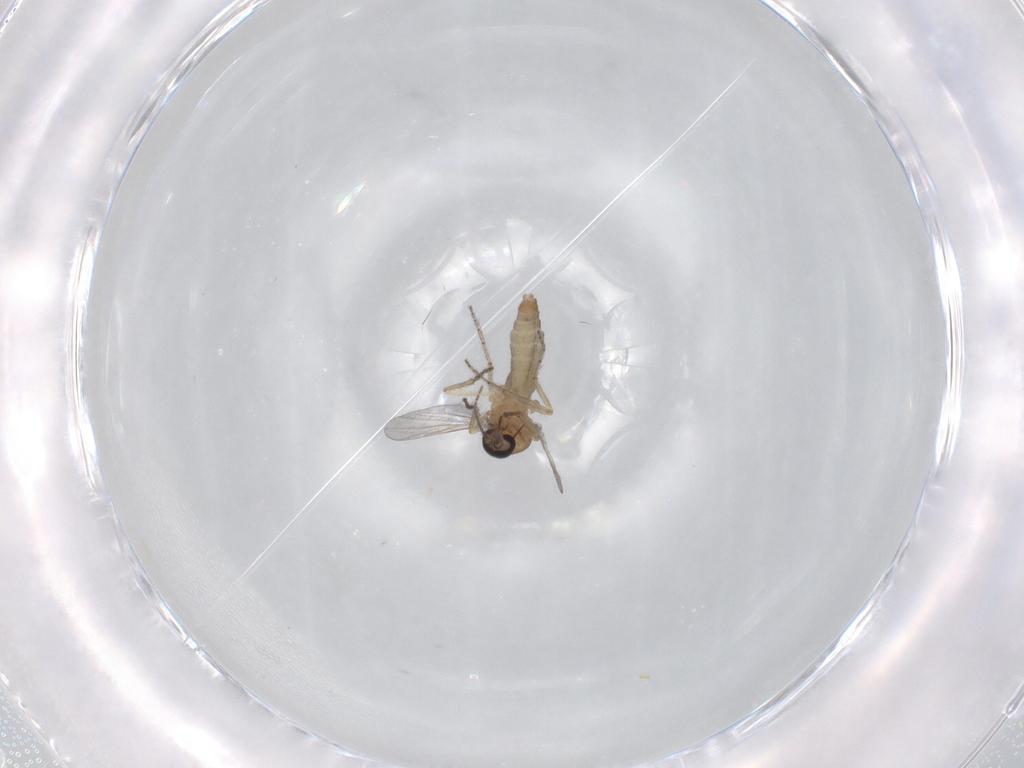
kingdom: Animalia
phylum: Arthropoda
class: Insecta
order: Diptera
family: Ceratopogonidae
